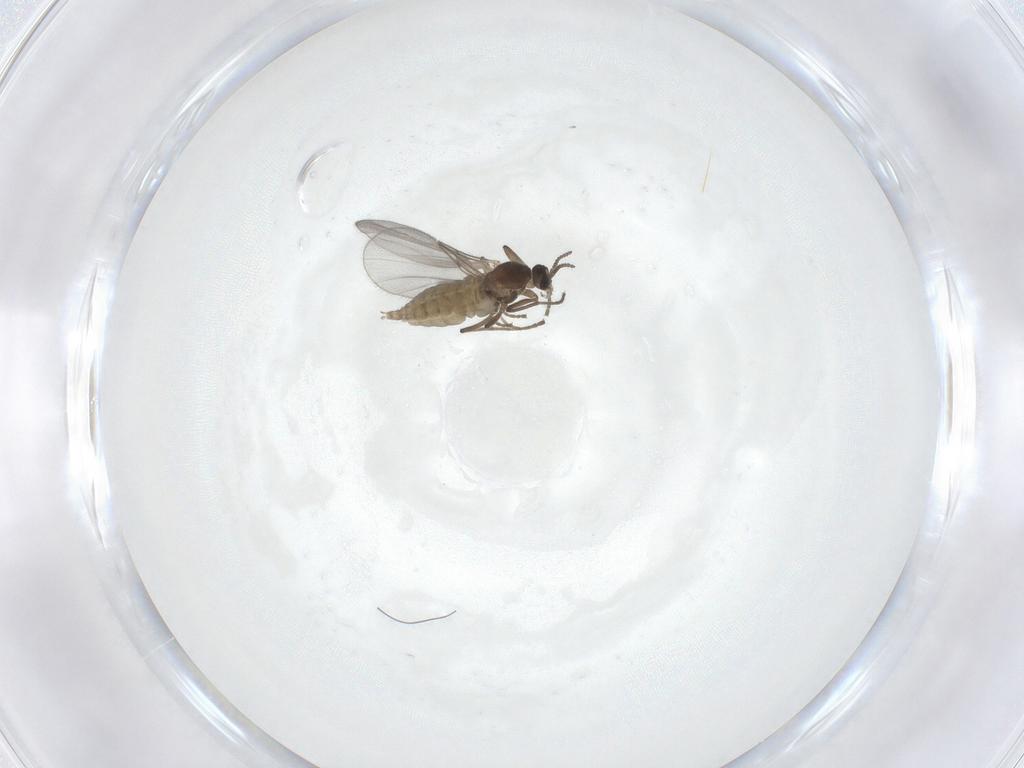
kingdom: Animalia
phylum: Arthropoda
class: Insecta
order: Diptera
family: Cecidomyiidae
